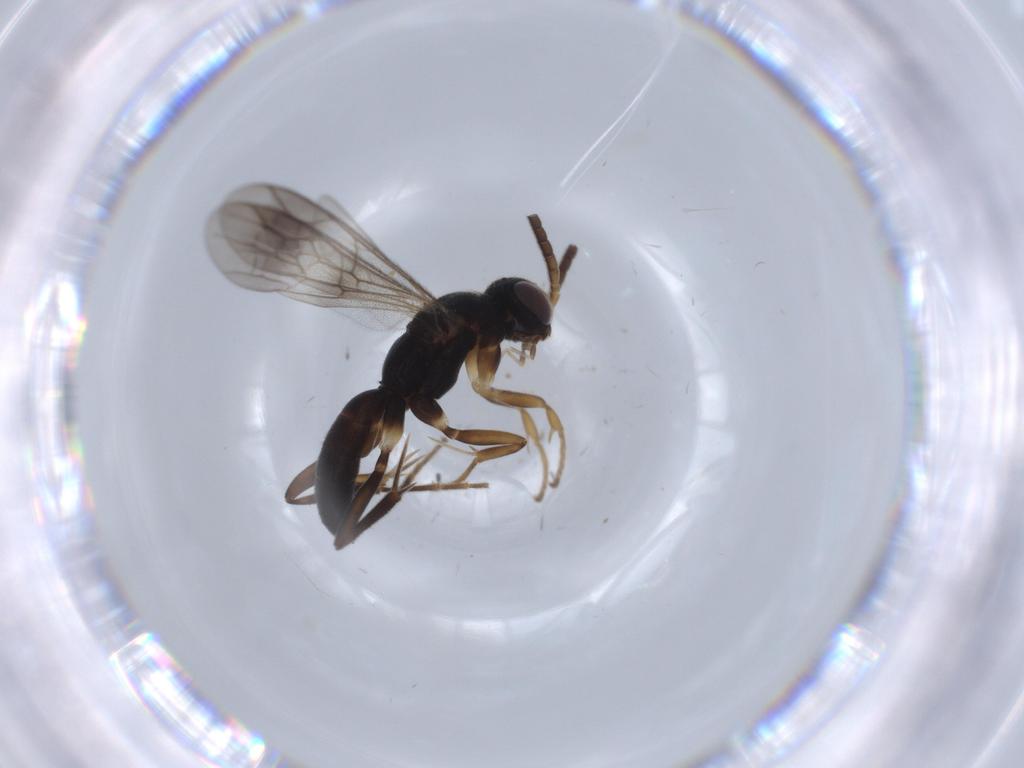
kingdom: Animalia
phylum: Arthropoda
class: Insecta
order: Hymenoptera
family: Pompilidae
